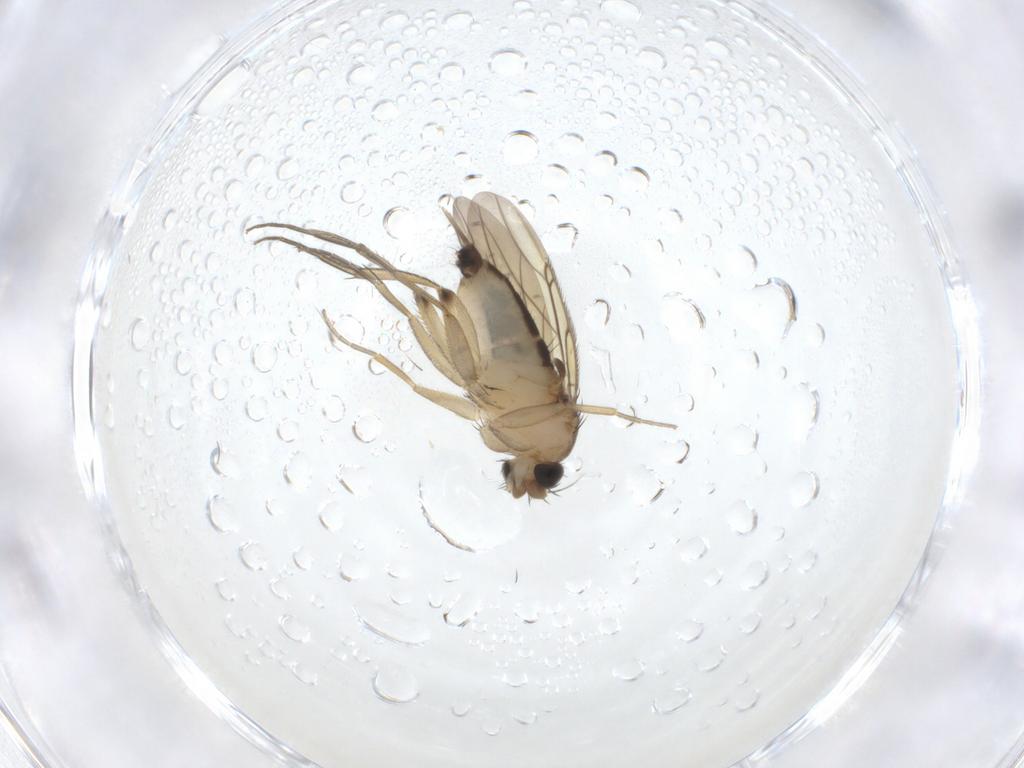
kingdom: Animalia
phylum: Arthropoda
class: Insecta
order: Diptera
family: Phoridae
